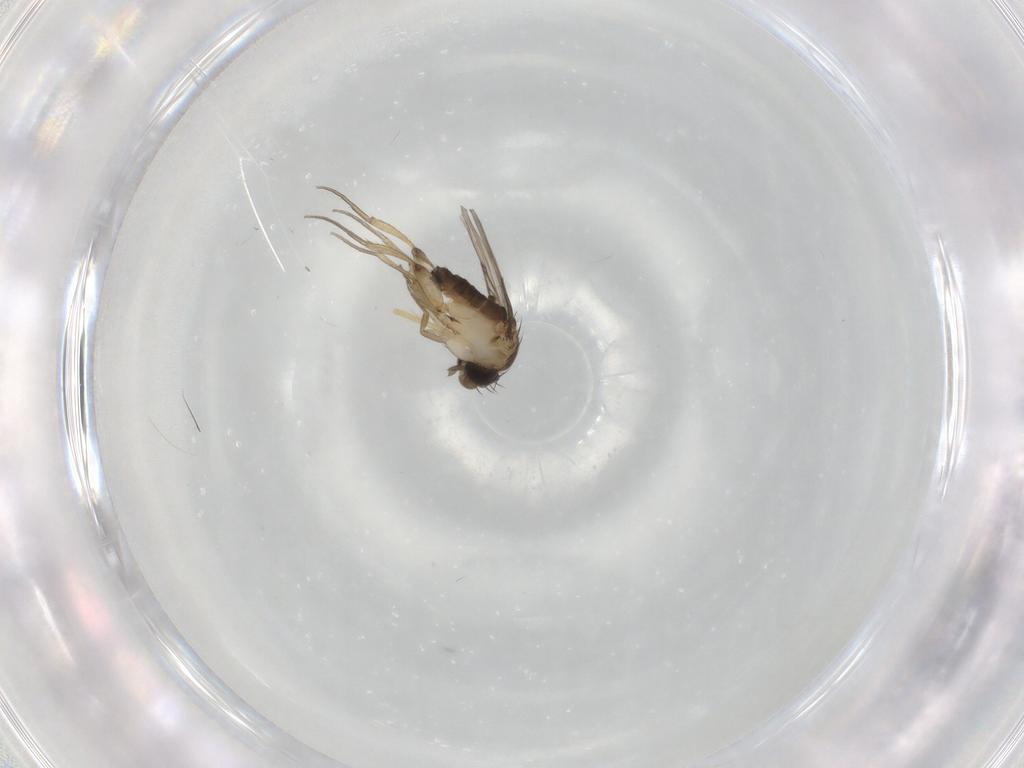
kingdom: Animalia
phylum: Arthropoda
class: Insecta
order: Diptera
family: Phoridae
